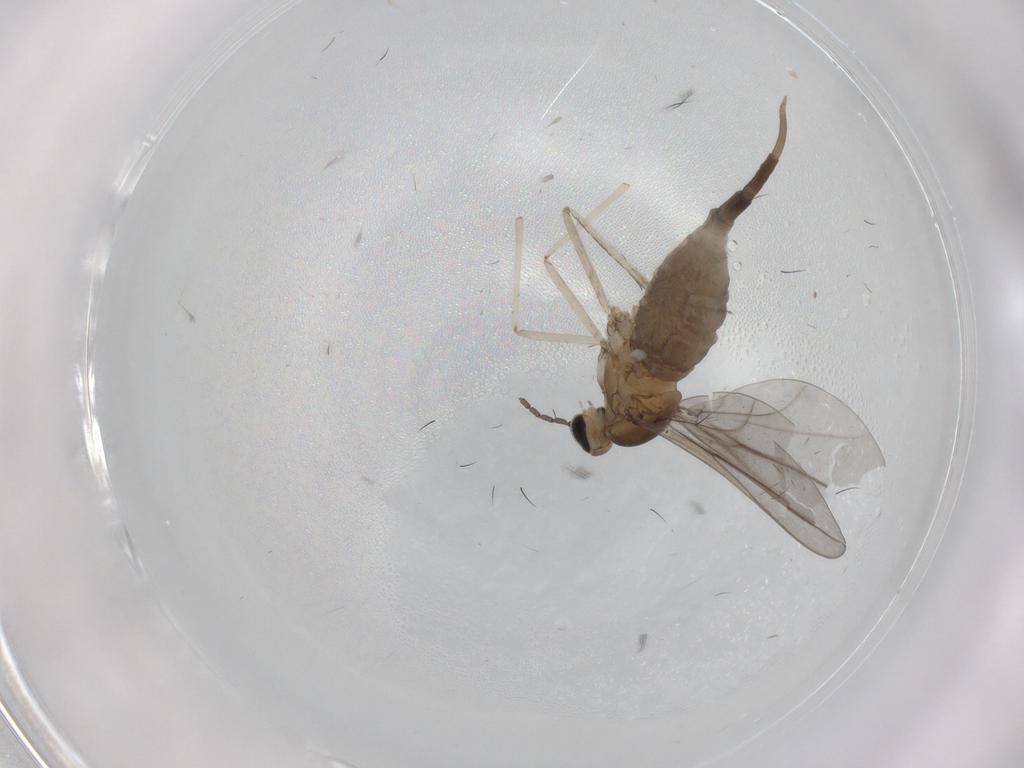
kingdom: Animalia
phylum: Arthropoda
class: Insecta
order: Diptera
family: Cecidomyiidae
